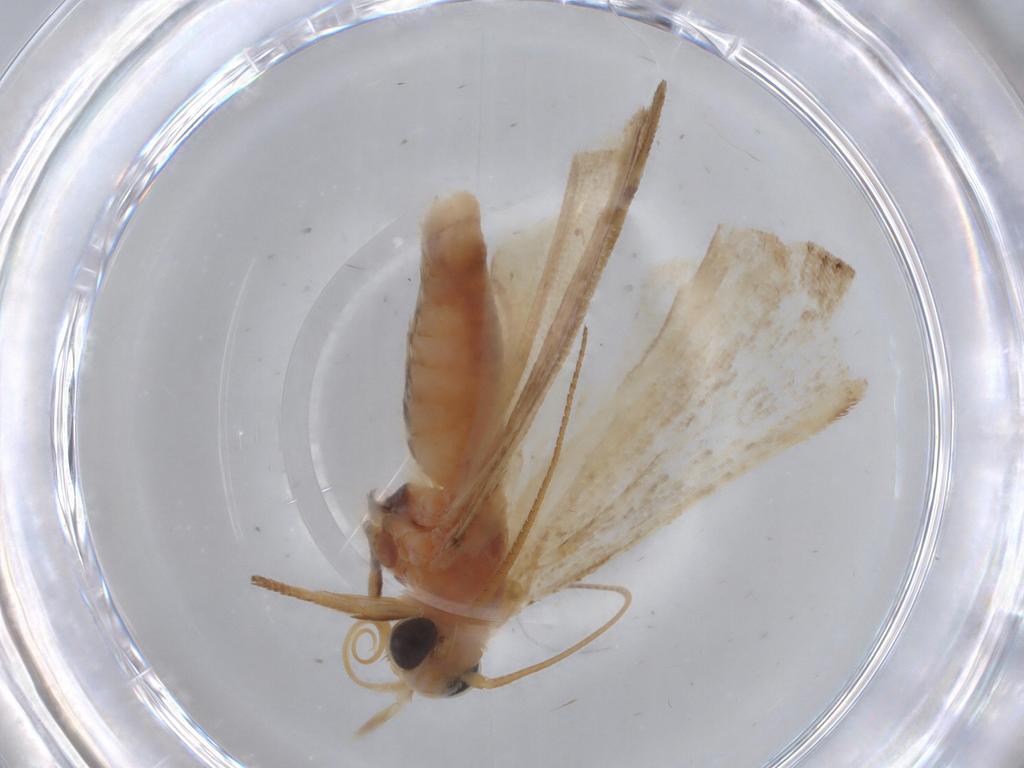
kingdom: Animalia
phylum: Arthropoda
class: Insecta
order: Lepidoptera
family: Pyralidae
